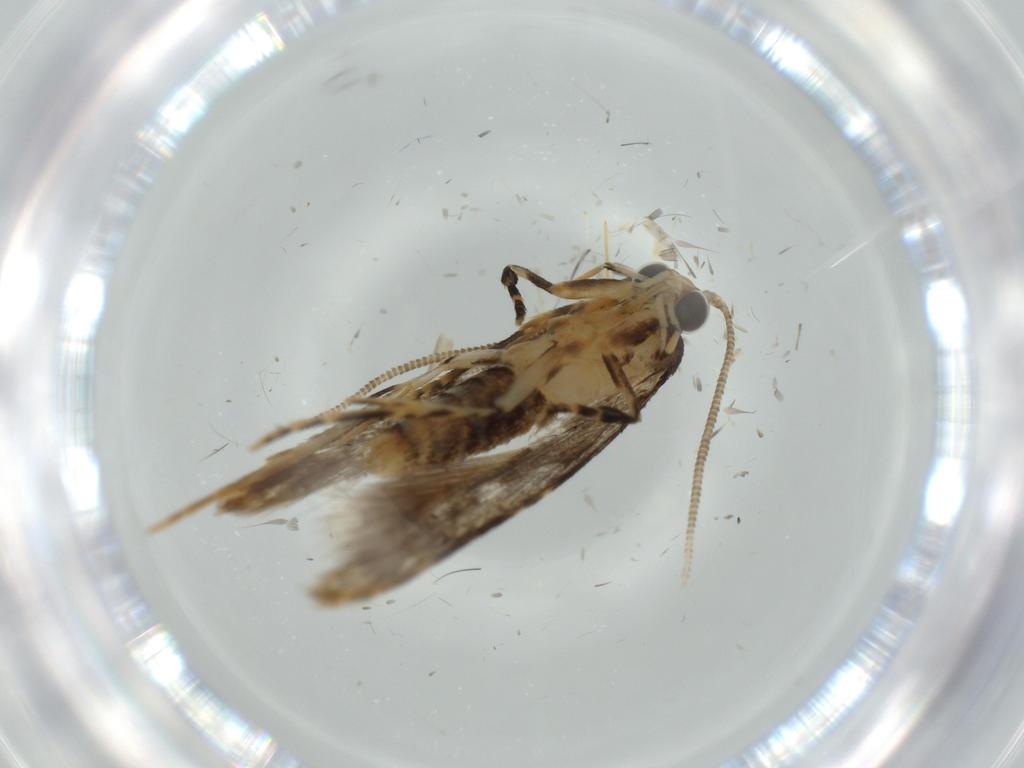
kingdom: Animalia
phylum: Arthropoda
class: Insecta
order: Lepidoptera
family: Tineidae
